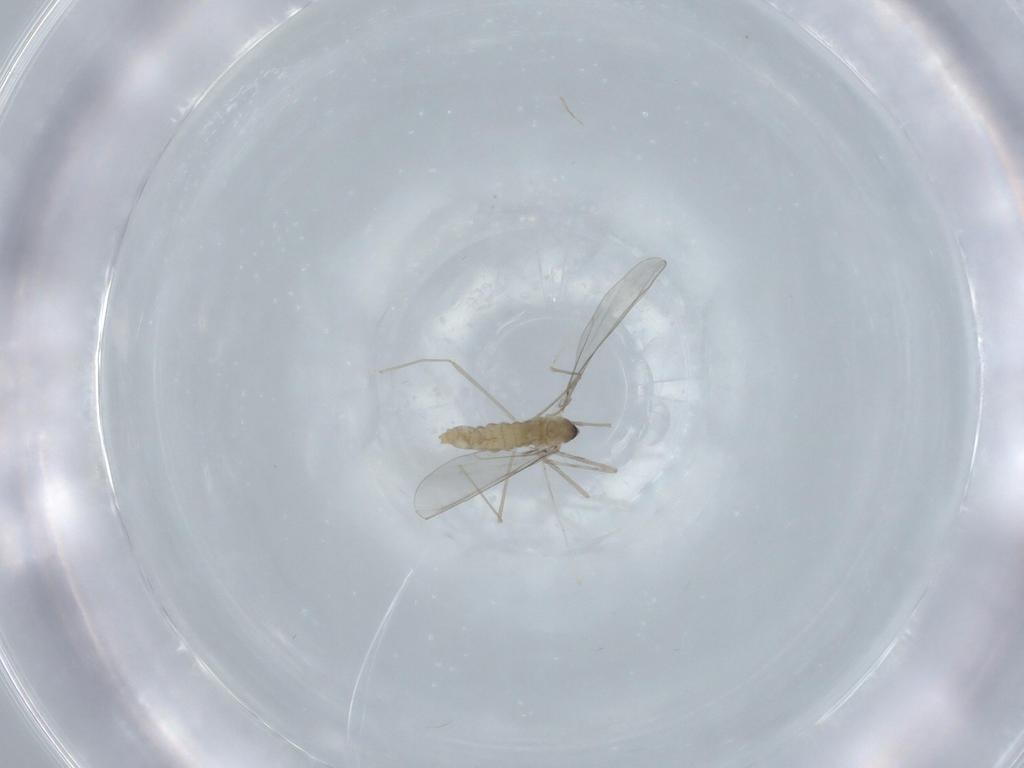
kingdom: Animalia
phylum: Arthropoda
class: Insecta
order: Diptera
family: Cecidomyiidae
